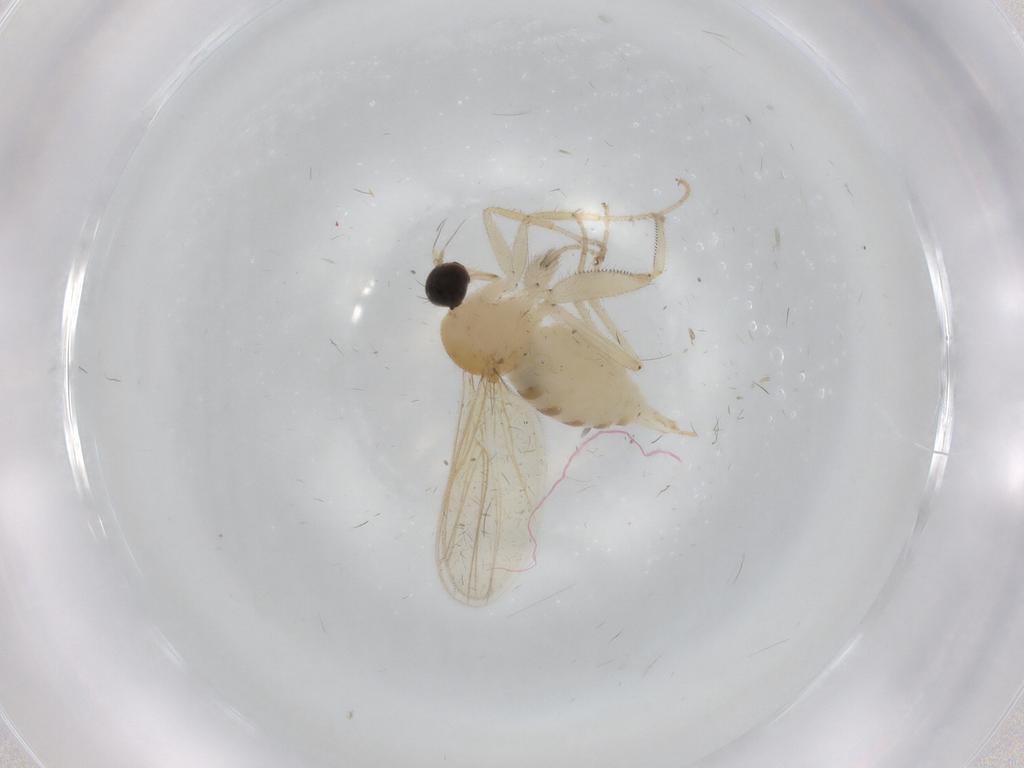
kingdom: Animalia
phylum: Arthropoda
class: Insecta
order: Diptera
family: Hybotidae
